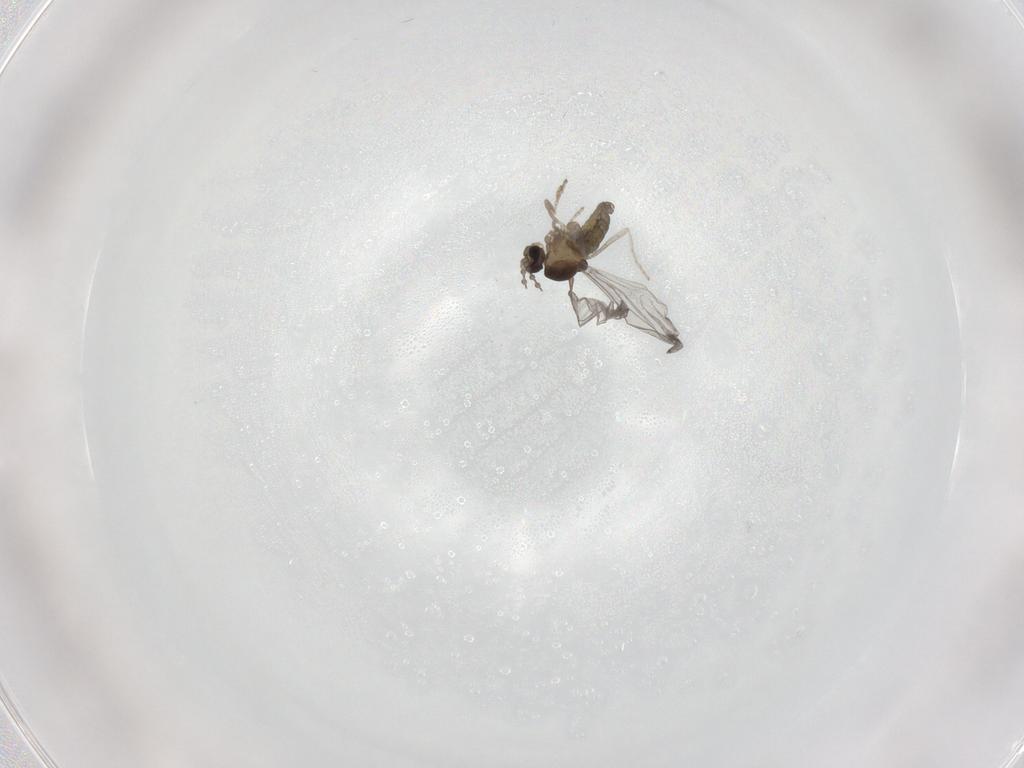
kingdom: Animalia
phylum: Arthropoda
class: Insecta
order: Diptera
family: Cecidomyiidae
